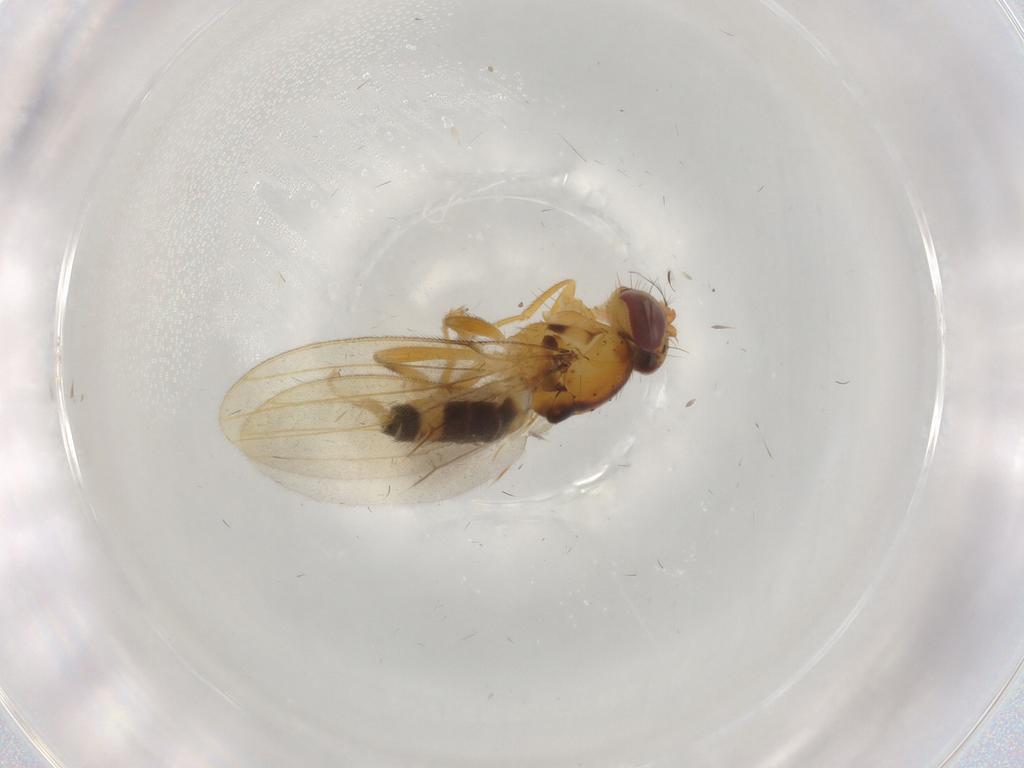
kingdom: Animalia
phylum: Arthropoda
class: Insecta
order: Diptera
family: Periscelididae
